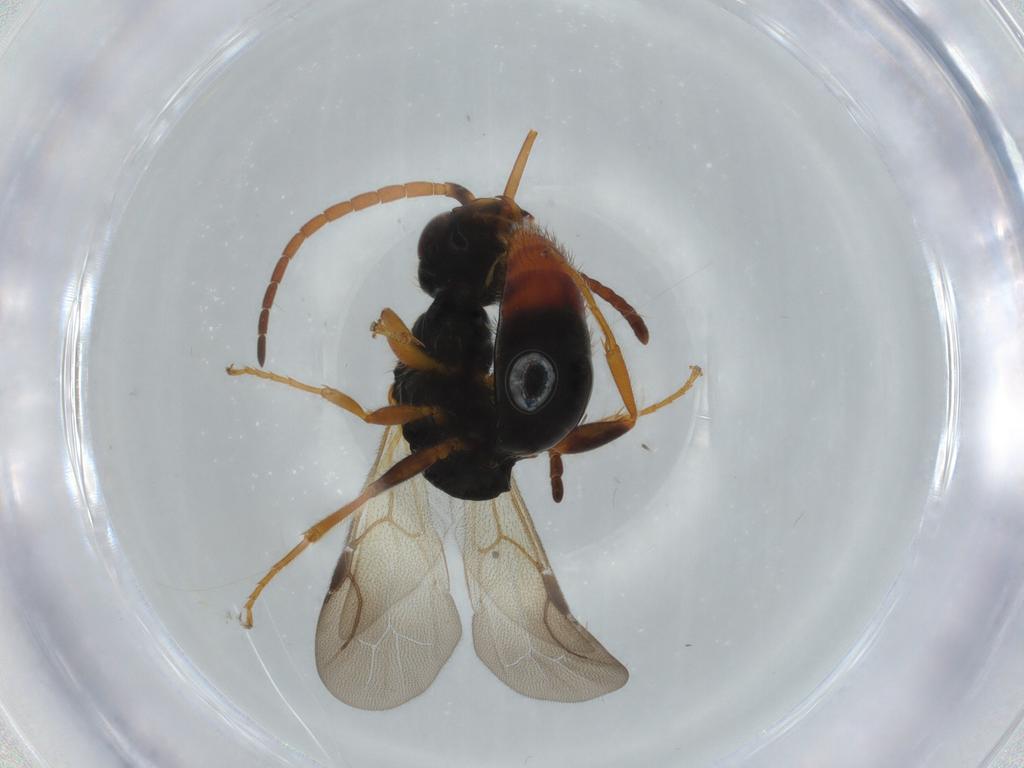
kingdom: Animalia
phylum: Arthropoda
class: Insecta
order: Hymenoptera
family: Bethylidae
